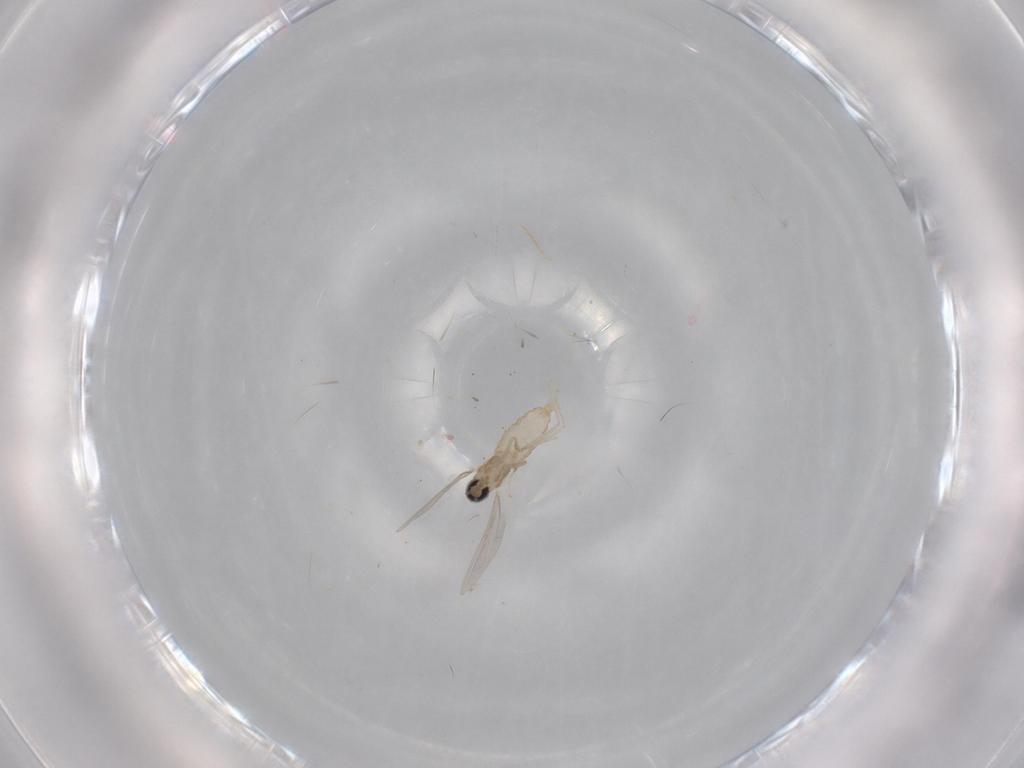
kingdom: Animalia
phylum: Arthropoda
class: Insecta
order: Diptera
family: Cecidomyiidae
